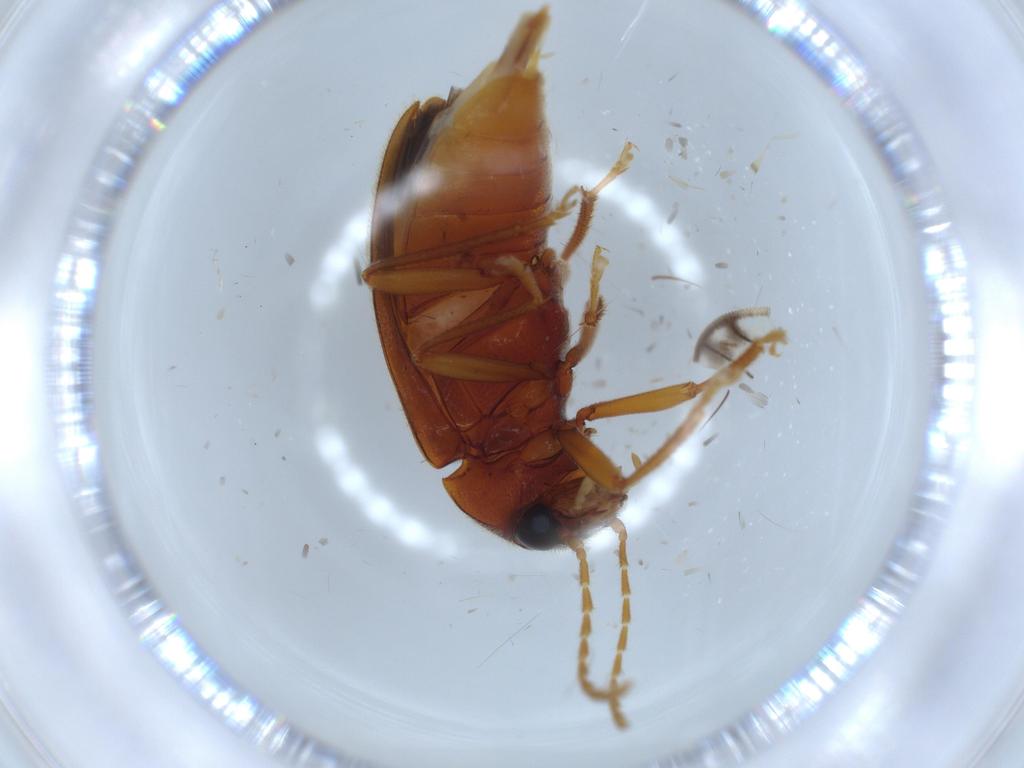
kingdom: Animalia
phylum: Arthropoda
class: Insecta
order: Coleoptera
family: Ptilodactylidae
